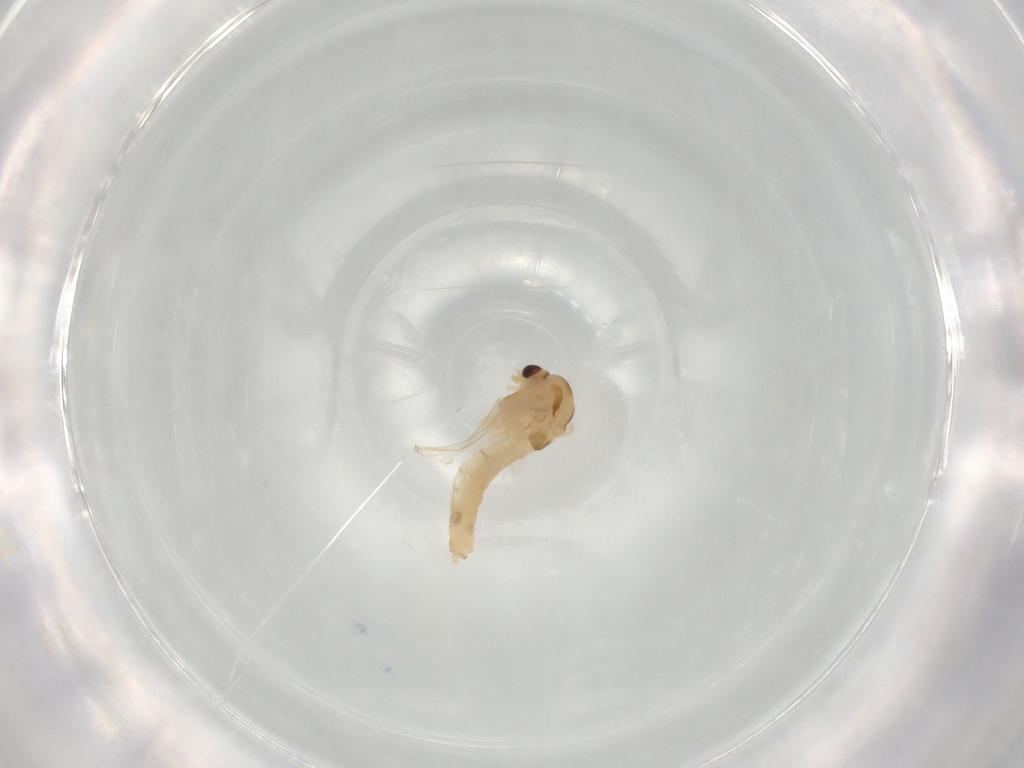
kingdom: Animalia
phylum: Arthropoda
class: Insecta
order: Diptera
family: Chironomidae
